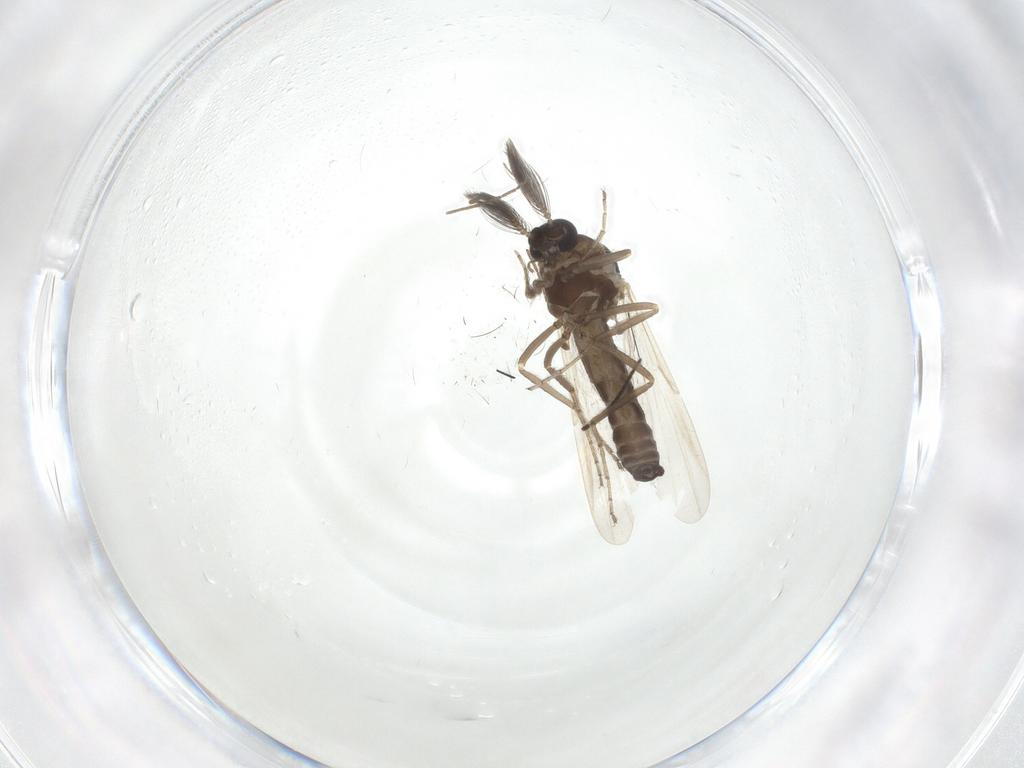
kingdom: Animalia
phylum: Arthropoda
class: Insecta
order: Diptera
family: Ceratopogonidae
